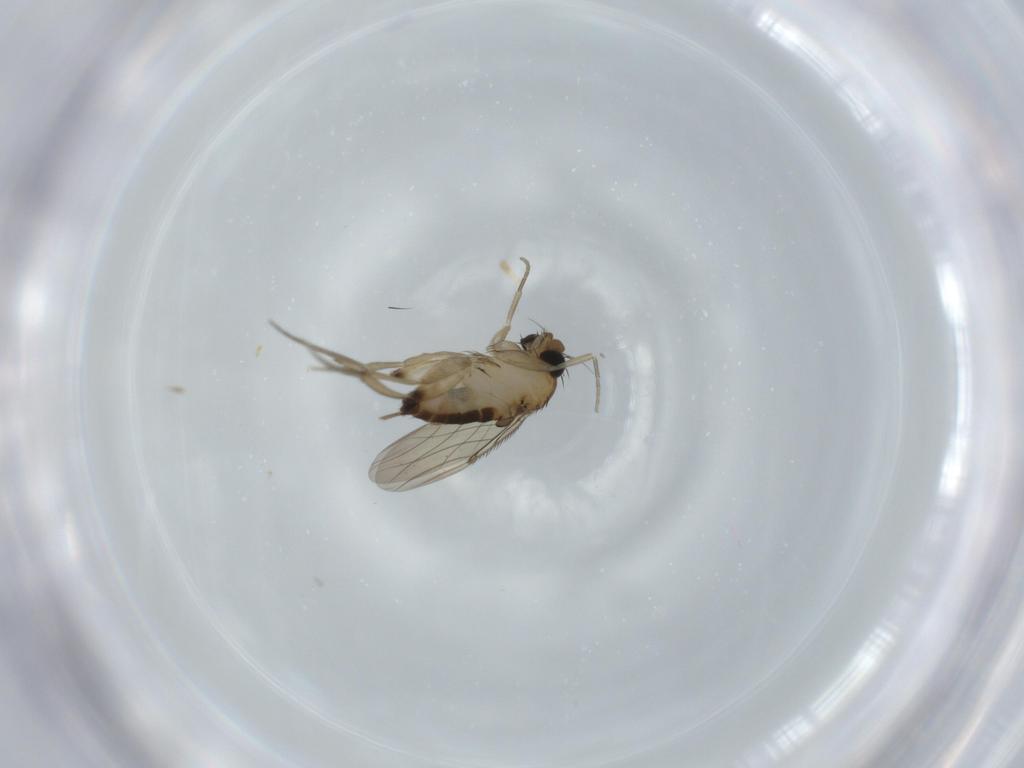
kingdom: Animalia
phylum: Arthropoda
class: Insecta
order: Diptera
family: Phoridae
